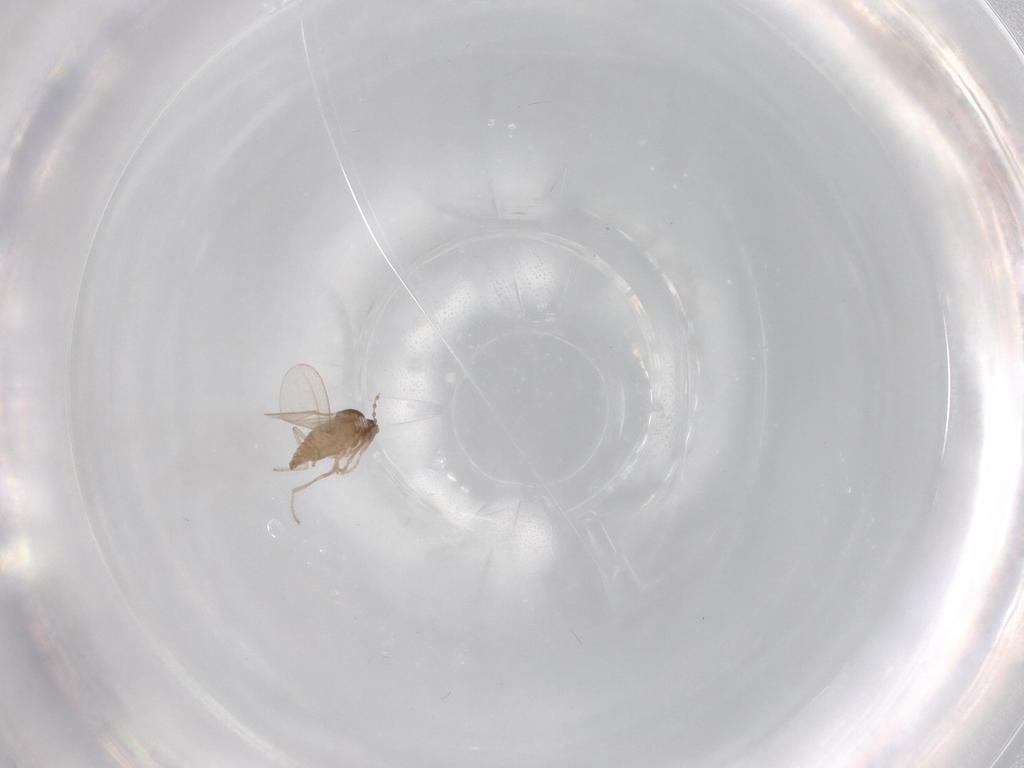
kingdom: Animalia
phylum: Arthropoda
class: Insecta
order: Diptera
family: Cecidomyiidae
